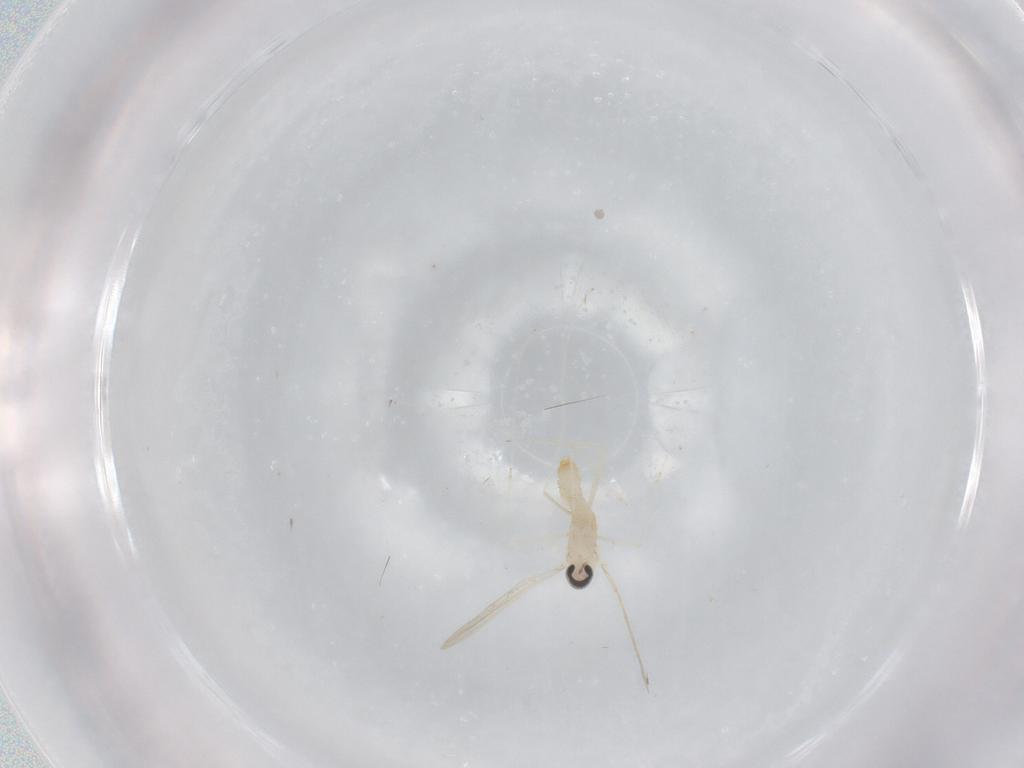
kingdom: Animalia
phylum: Arthropoda
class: Insecta
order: Diptera
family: Cecidomyiidae
